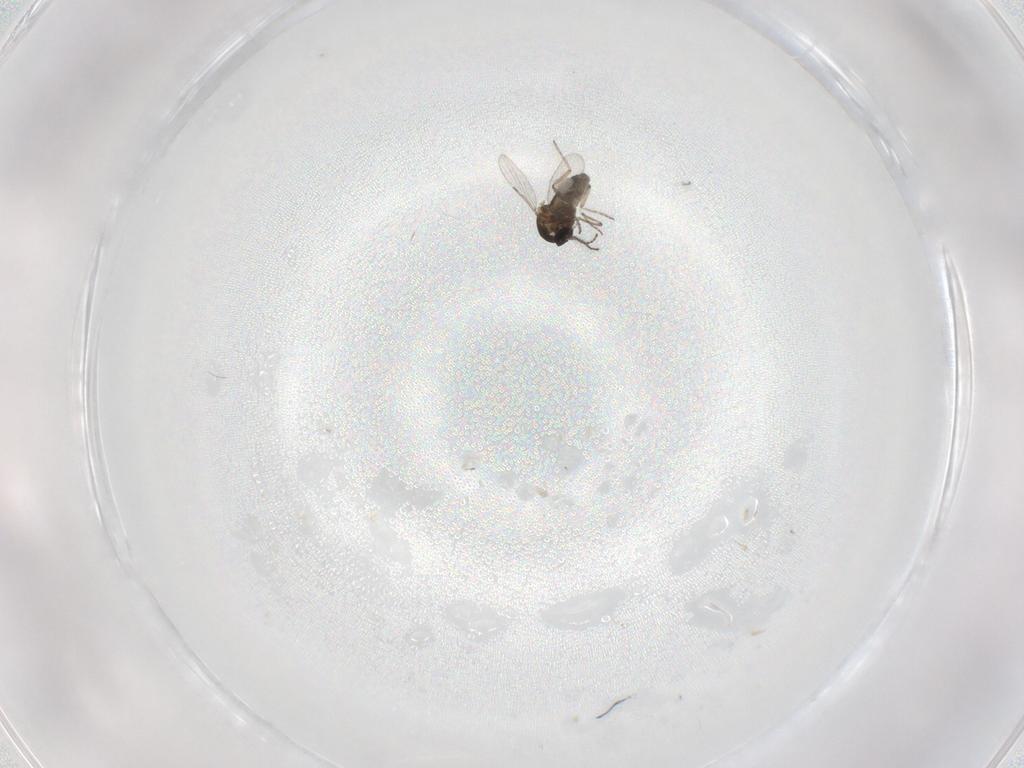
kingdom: Animalia
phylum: Arthropoda
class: Insecta
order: Diptera
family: Ceratopogonidae
